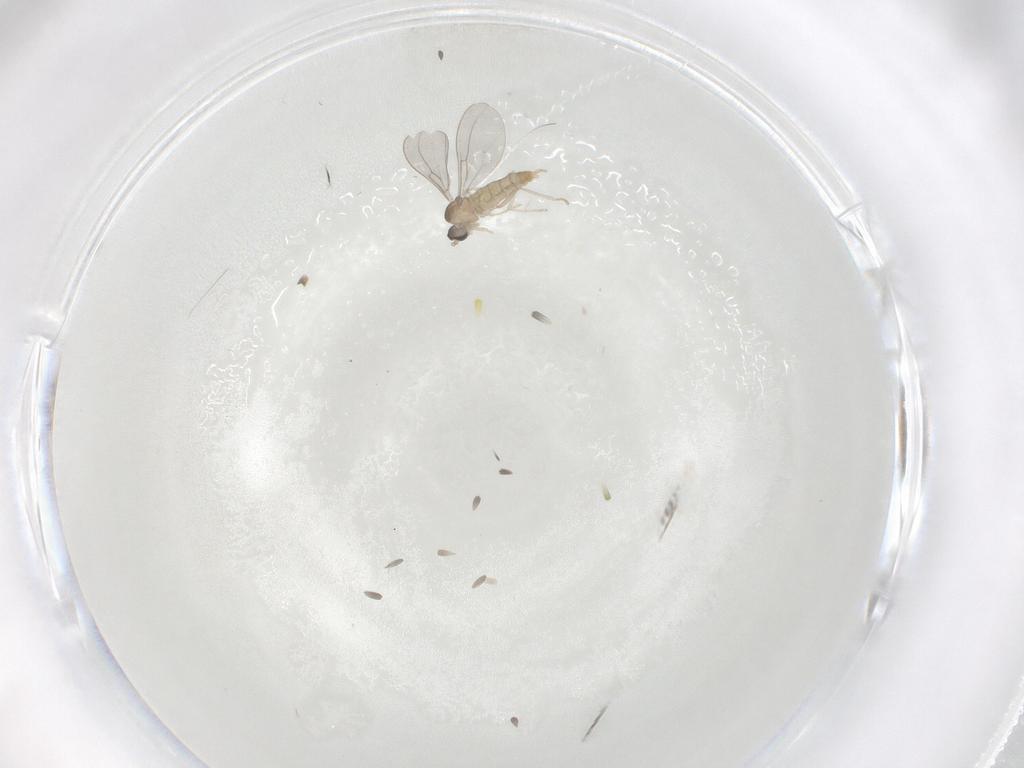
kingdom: Animalia
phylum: Arthropoda
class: Insecta
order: Diptera
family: Cecidomyiidae
